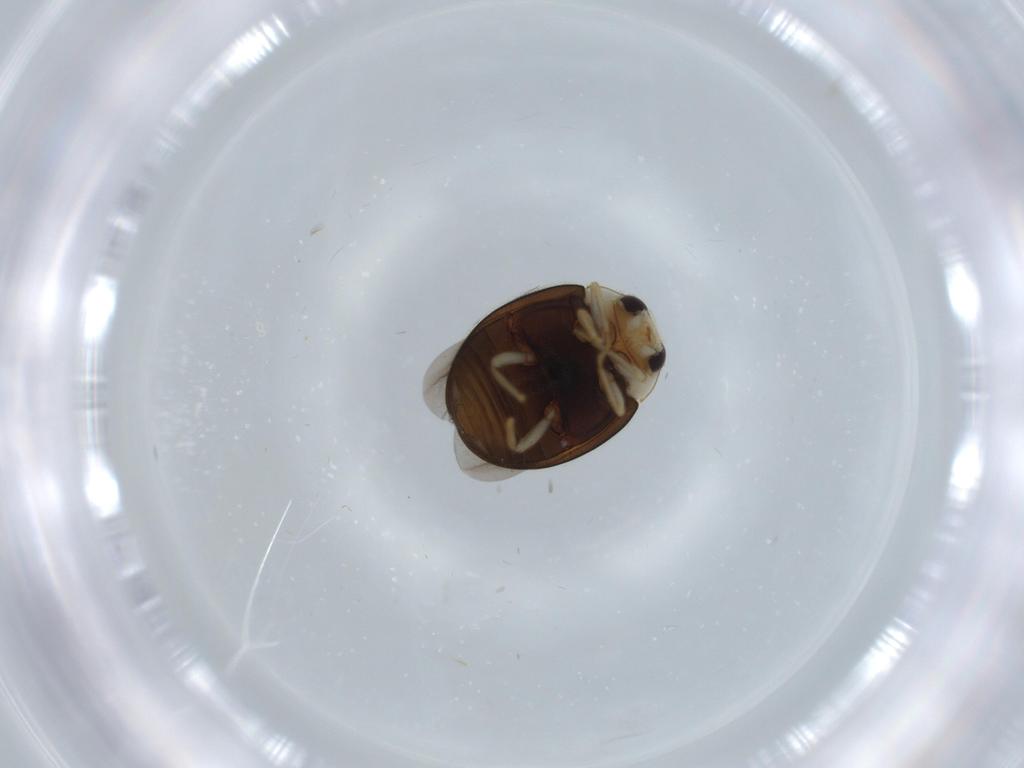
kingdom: Animalia
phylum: Arthropoda
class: Insecta
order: Coleoptera
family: Coccinellidae
